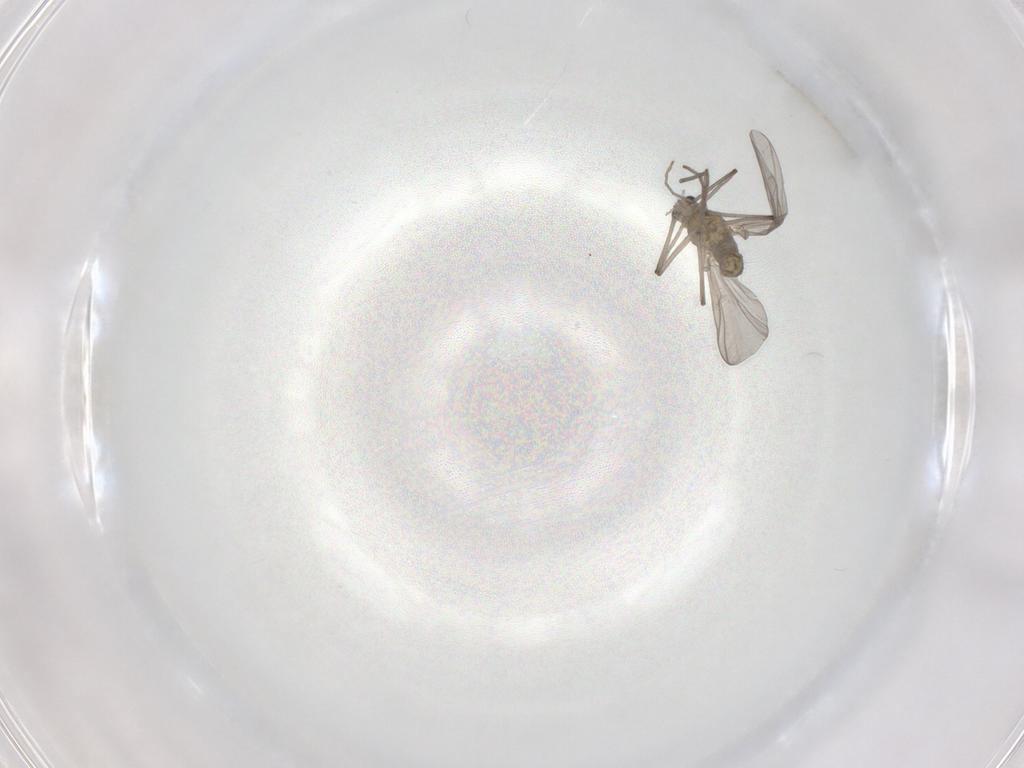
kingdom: Animalia
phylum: Arthropoda
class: Insecta
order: Diptera
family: Chironomidae
